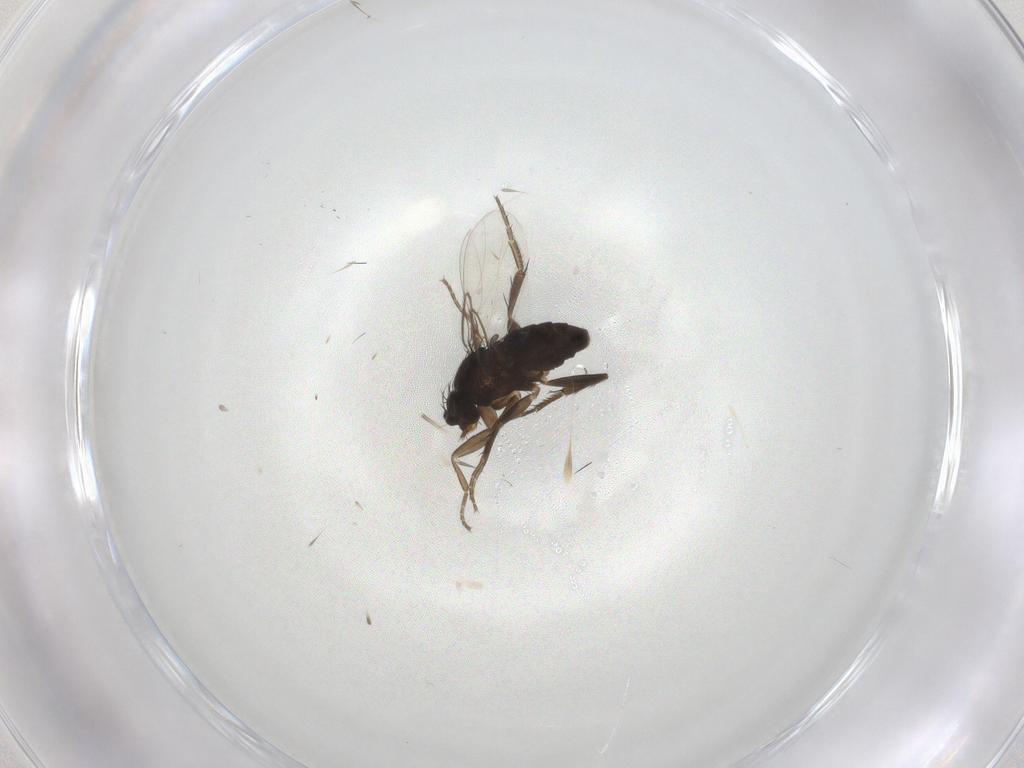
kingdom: Animalia
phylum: Arthropoda
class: Insecta
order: Diptera
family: Phoridae
